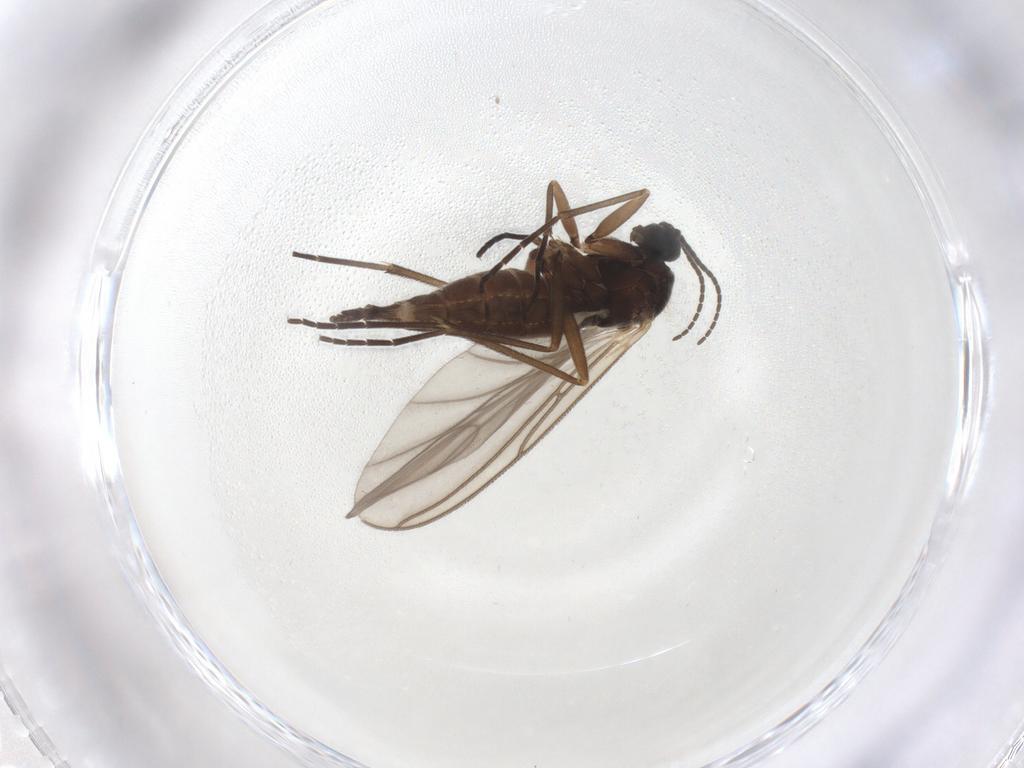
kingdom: Animalia
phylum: Arthropoda
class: Insecta
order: Diptera
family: Sciaridae
